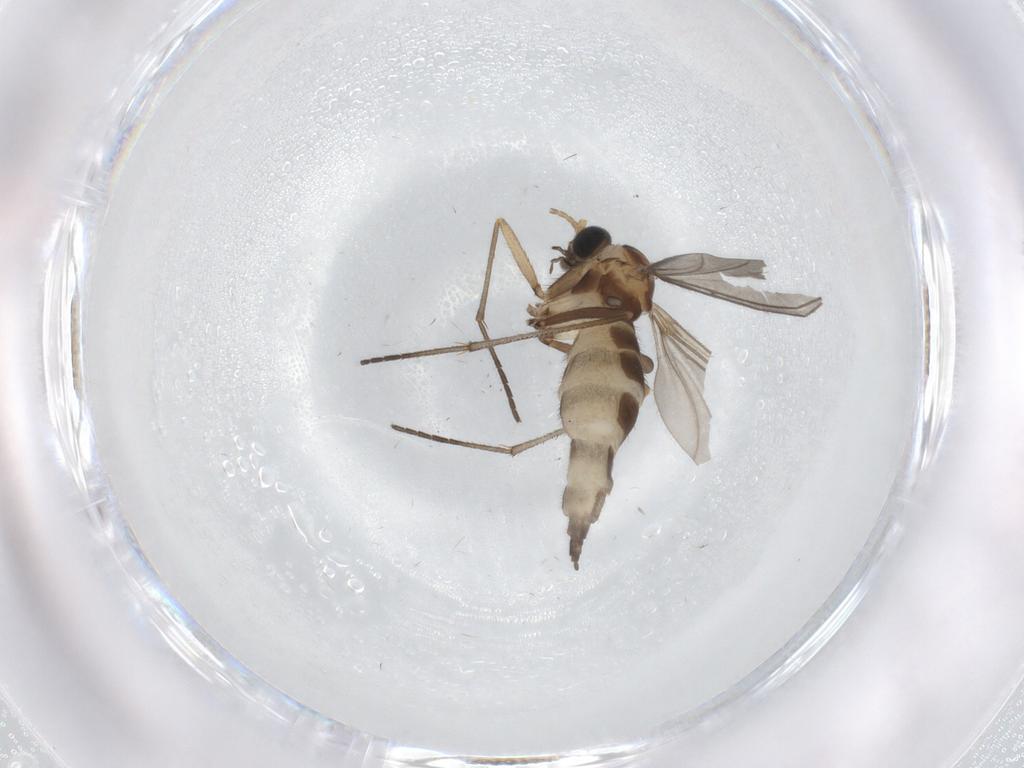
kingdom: Animalia
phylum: Arthropoda
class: Insecta
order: Diptera
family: Sciaridae
